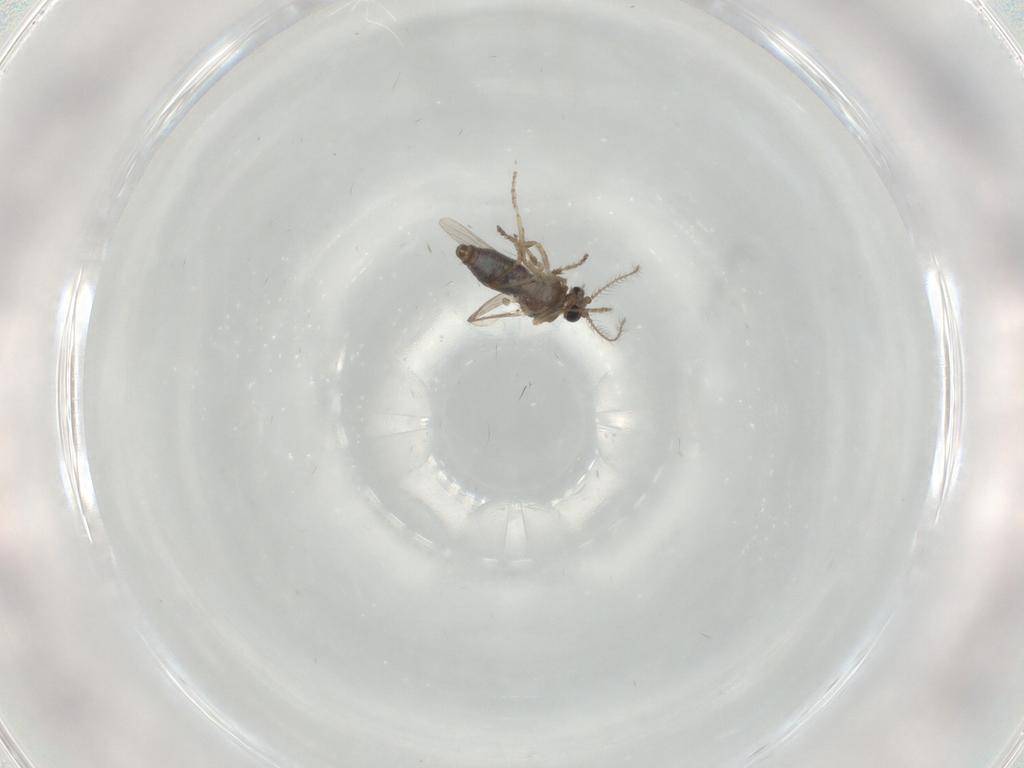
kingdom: Animalia
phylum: Arthropoda
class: Insecta
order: Diptera
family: Ceratopogonidae
